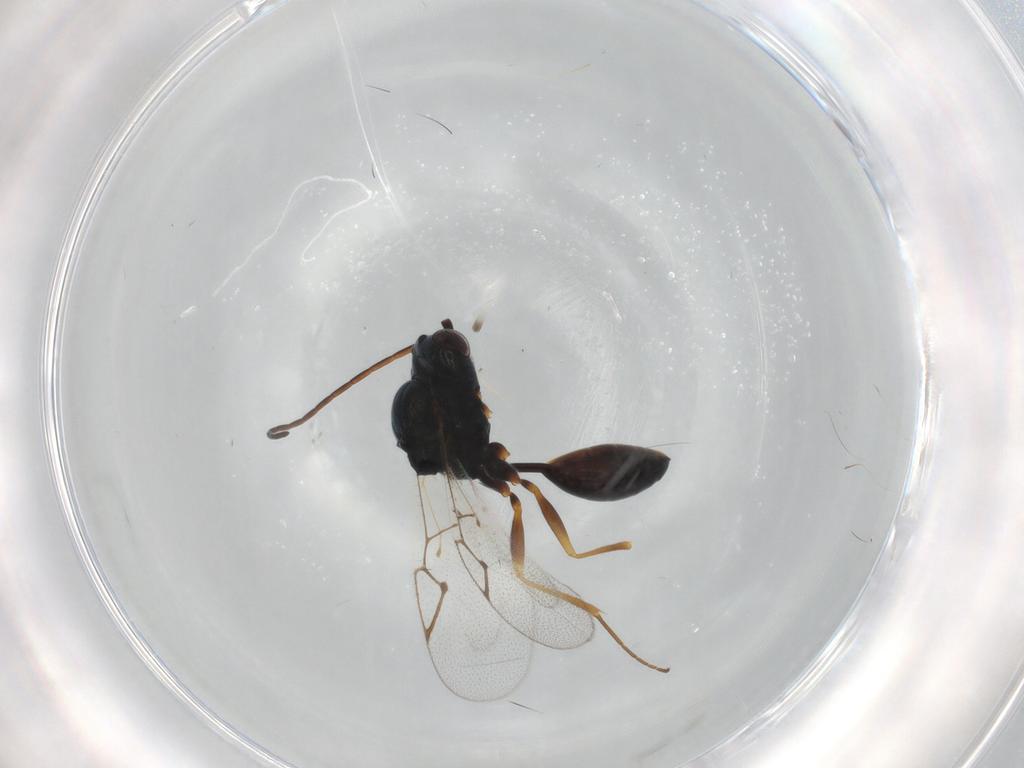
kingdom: Animalia
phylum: Arthropoda
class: Insecta
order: Hymenoptera
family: Figitidae
